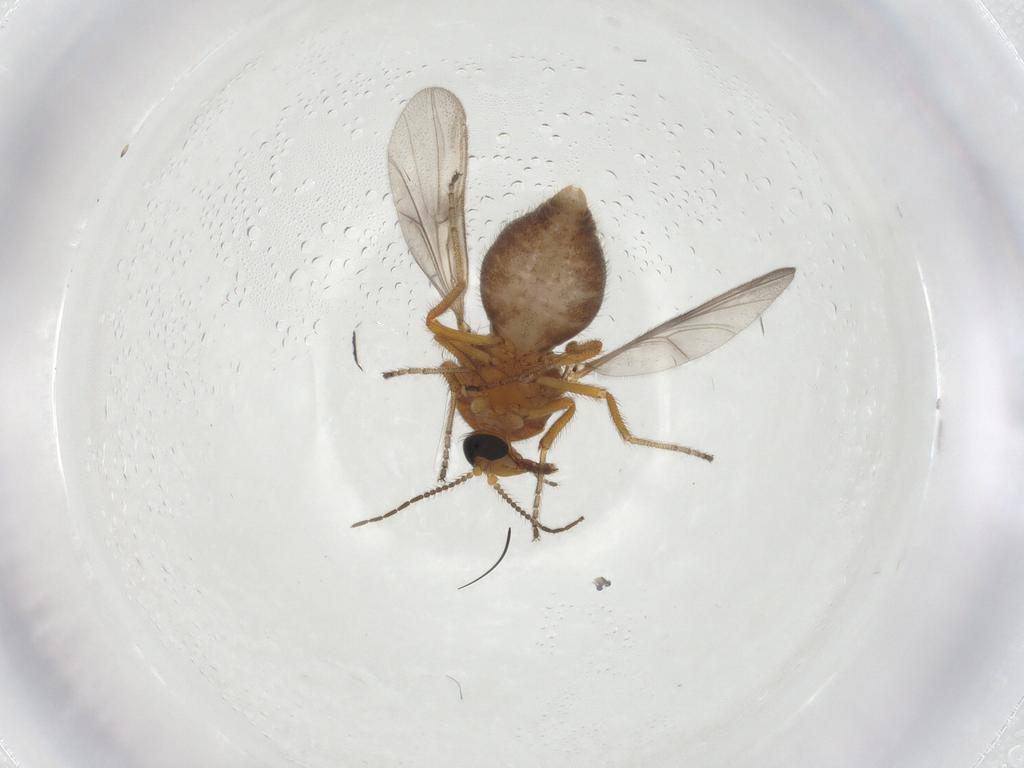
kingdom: Animalia
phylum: Arthropoda
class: Insecta
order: Diptera
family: Ceratopogonidae
